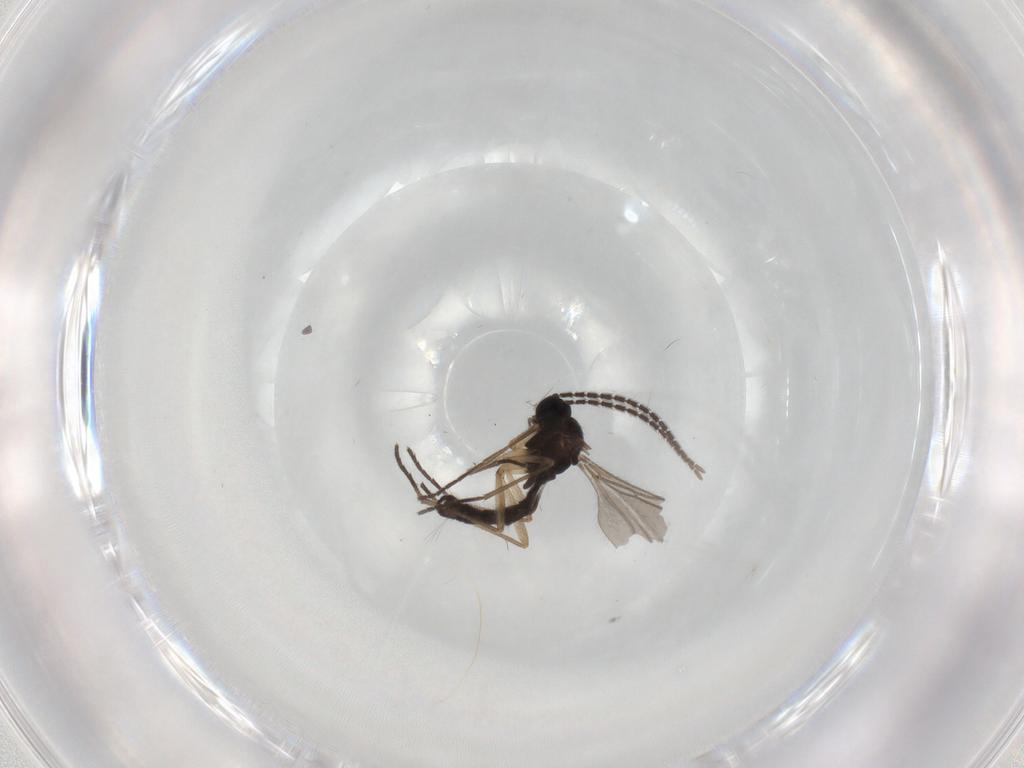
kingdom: Animalia
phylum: Arthropoda
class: Insecta
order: Diptera
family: Sciaridae
